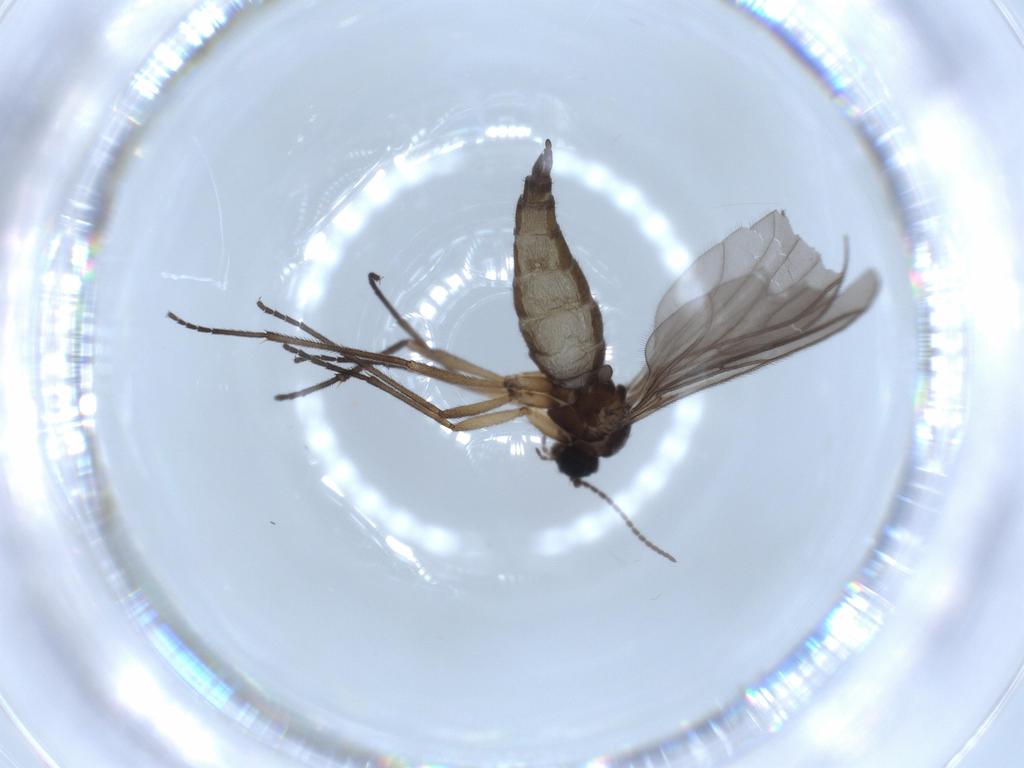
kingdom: Animalia
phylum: Arthropoda
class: Insecta
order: Diptera
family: Sciaridae
